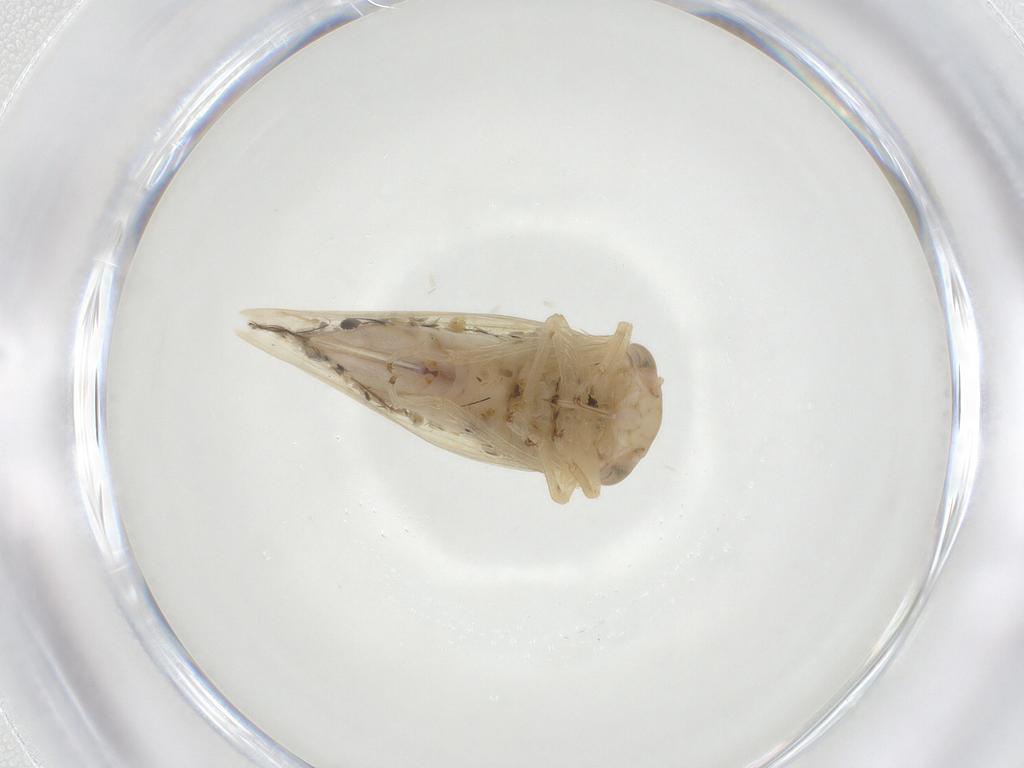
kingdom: Animalia
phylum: Arthropoda
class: Insecta
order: Hemiptera
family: Cicadellidae
